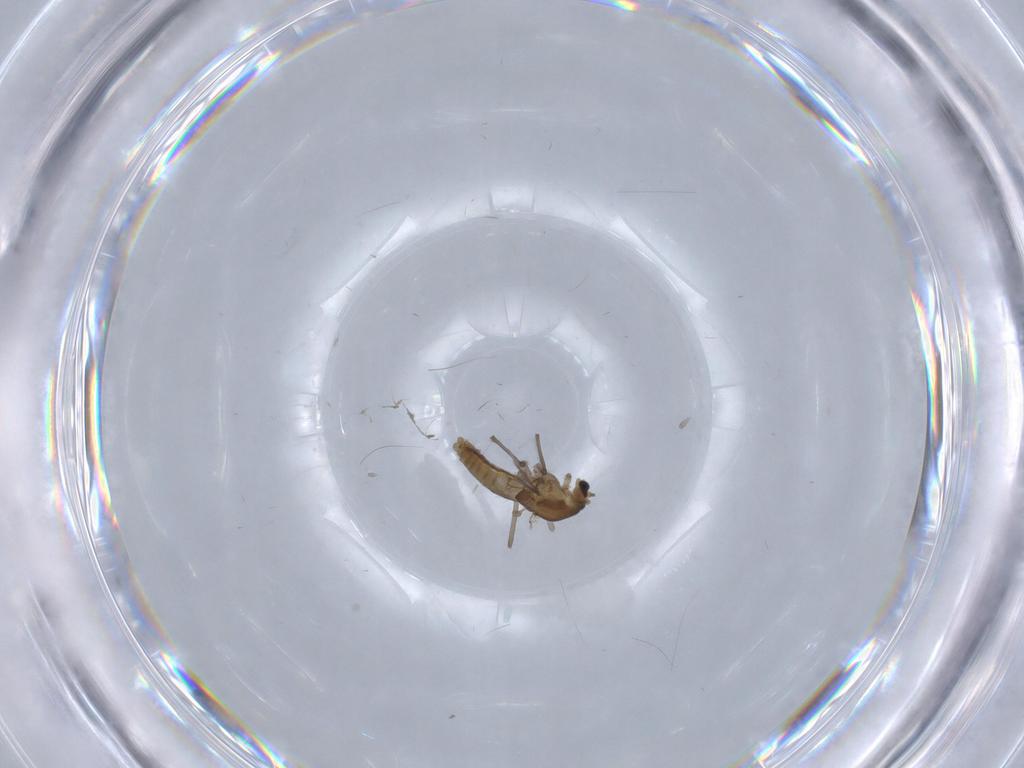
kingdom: Animalia
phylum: Arthropoda
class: Insecta
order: Diptera
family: Chironomidae
